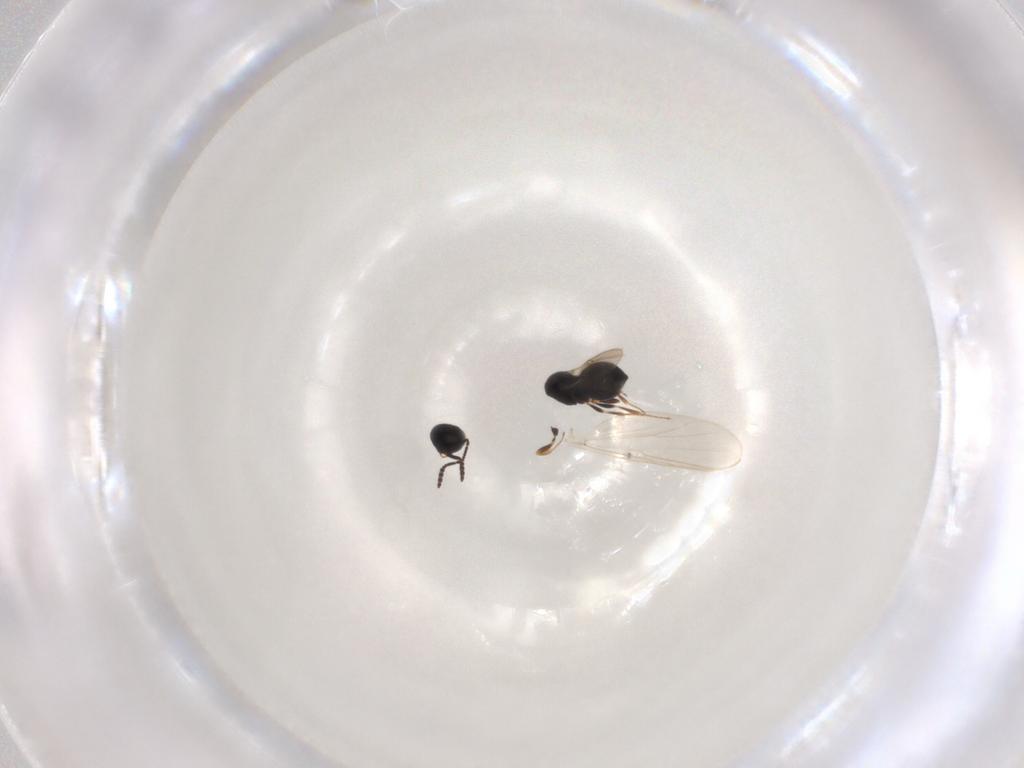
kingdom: Animalia
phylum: Arthropoda
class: Insecta
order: Hymenoptera
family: Scelionidae
